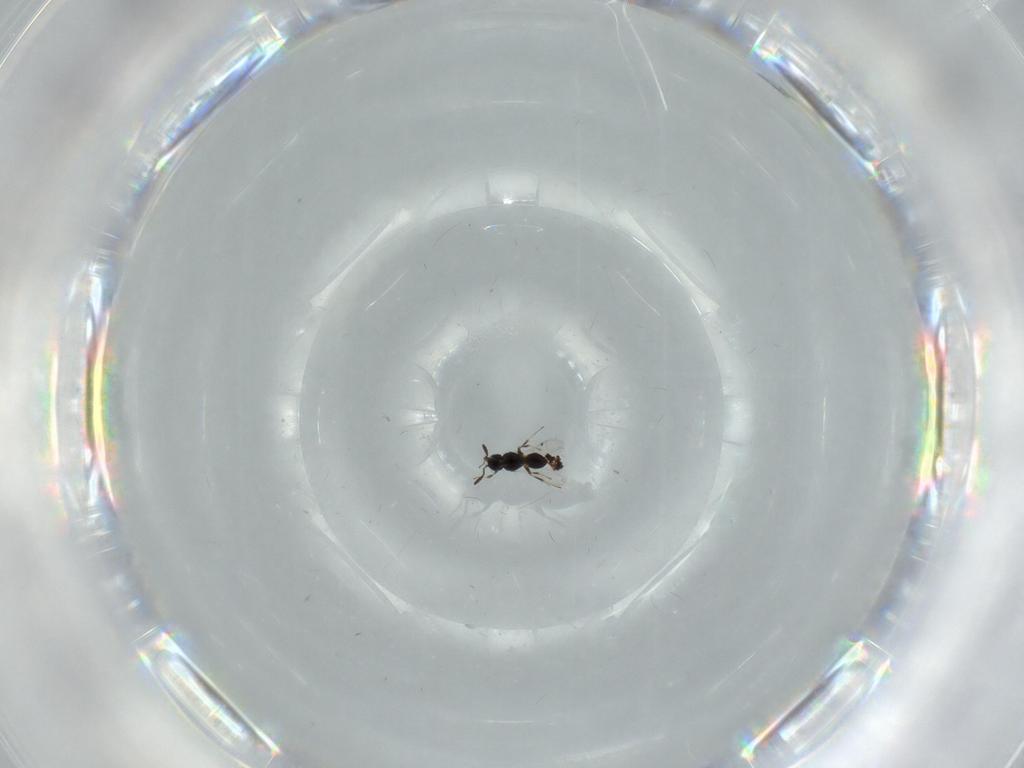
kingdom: Animalia
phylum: Arthropoda
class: Insecta
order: Hymenoptera
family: Scelionidae
